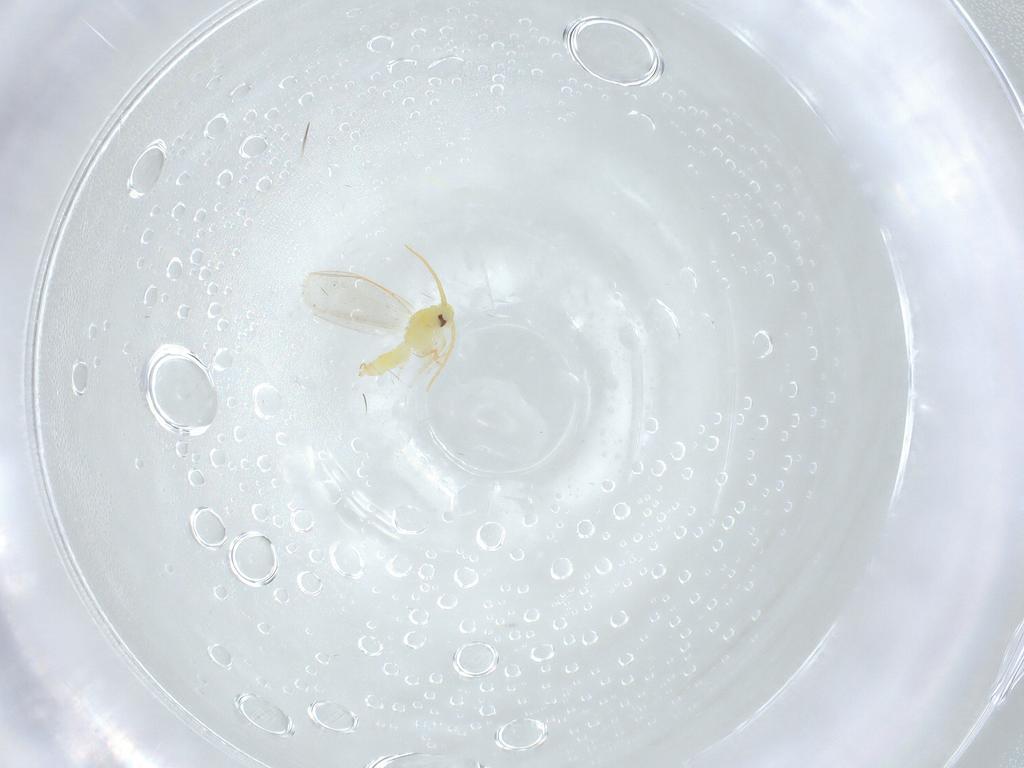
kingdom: Animalia
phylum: Arthropoda
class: Insecta
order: Hemiptera
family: Aleyrodidae
